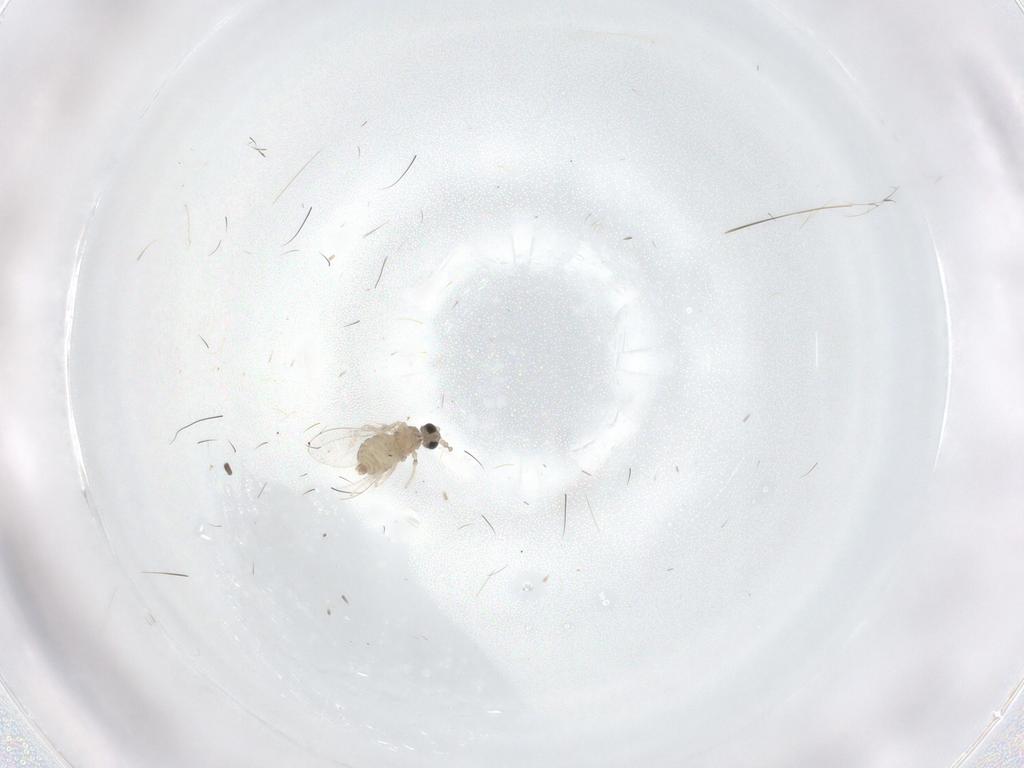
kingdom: Animalia
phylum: Arthropoda
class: Insecta
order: Diptera
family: Cecidomyiidae
